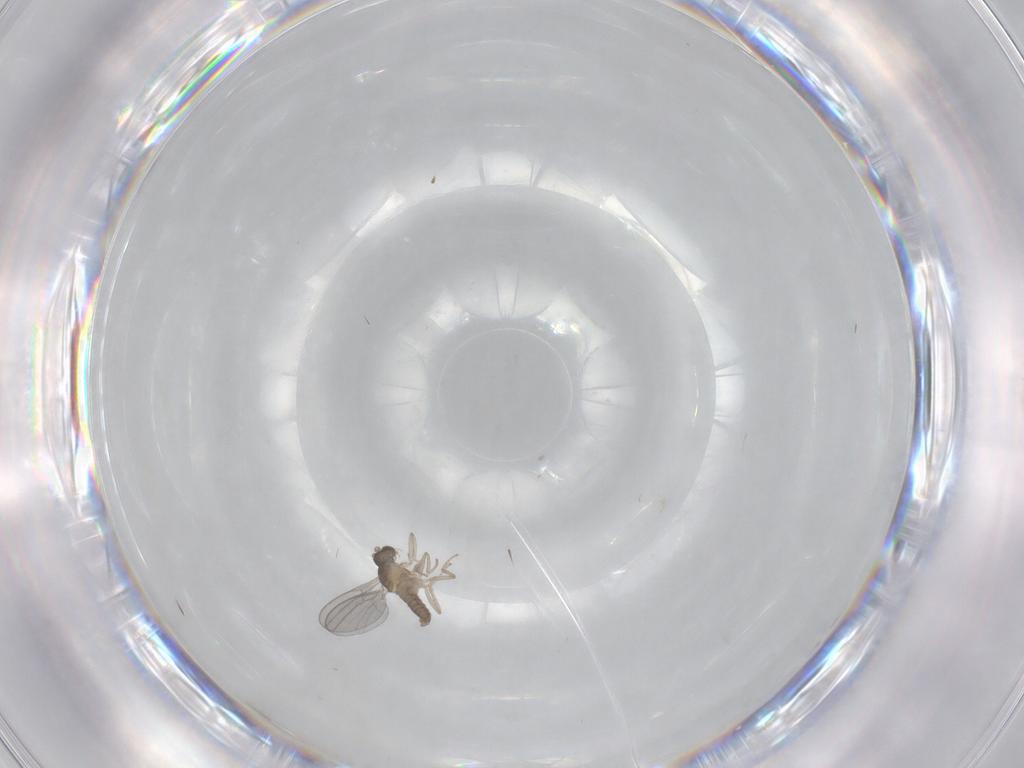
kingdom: Animalia
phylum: Arthropoda
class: Insecta
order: Diptera
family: Cecidomyiidae
